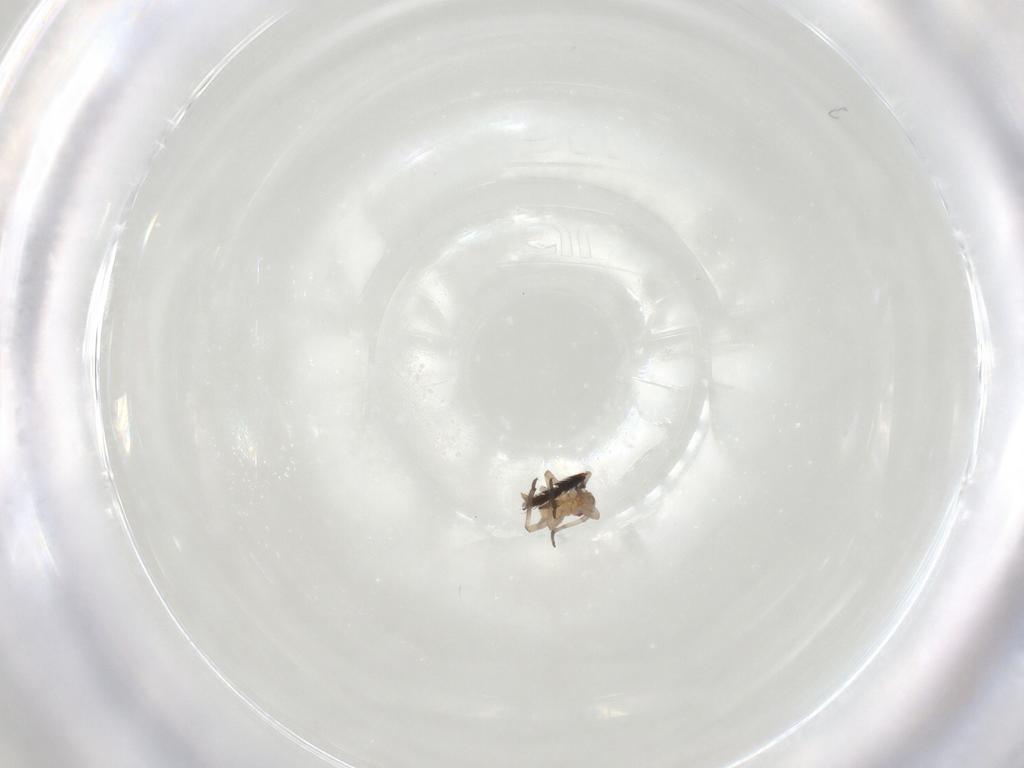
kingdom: Animalia
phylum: Arthropoda
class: Insecta
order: Hemiptera
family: Aphididae
